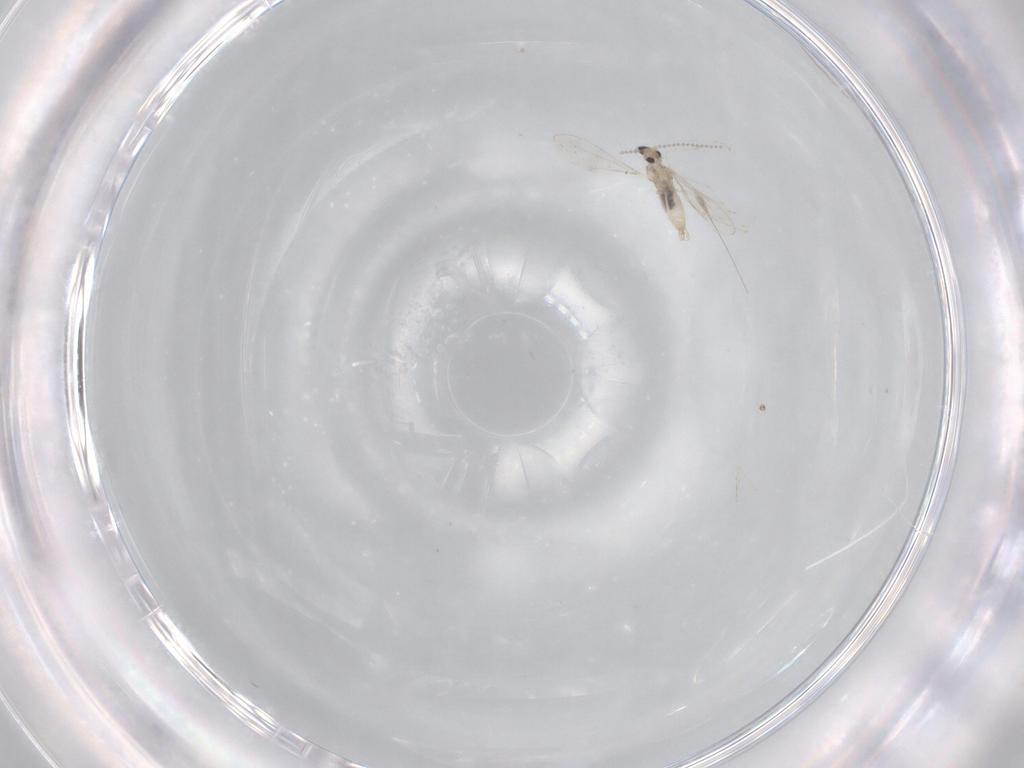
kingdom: Animalia
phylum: Arthropoda
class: Insecta
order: Diptera
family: Cecidomyiidae
